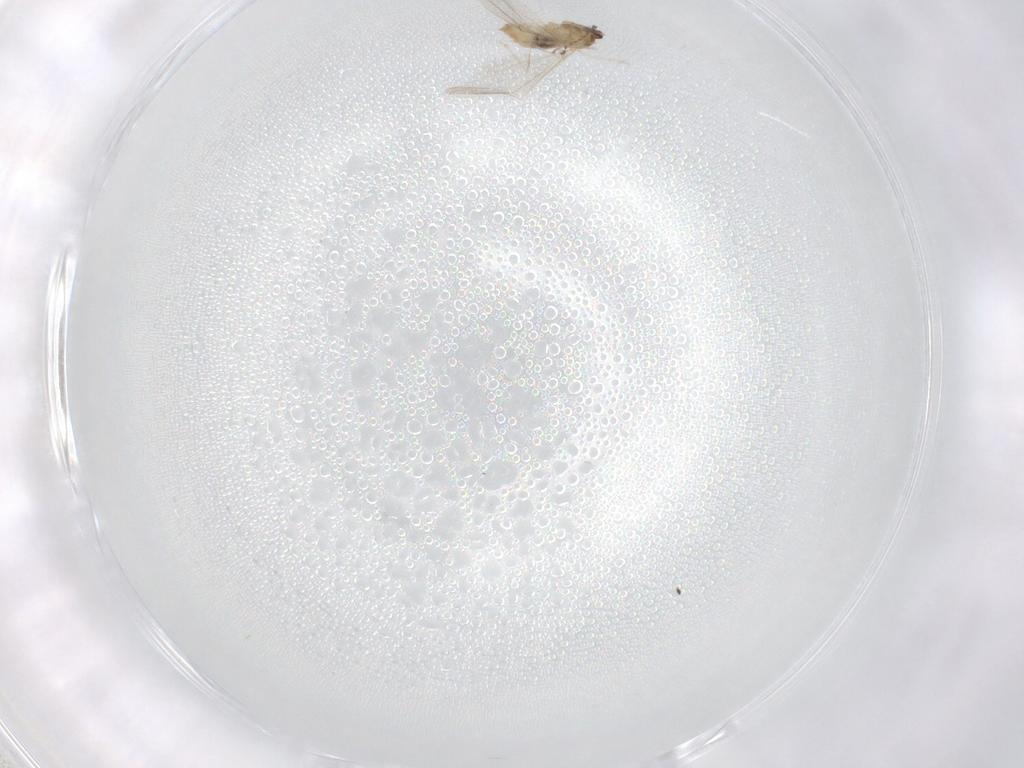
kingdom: Animalia
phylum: Arthropoda
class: Insecta
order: Diptera
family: Cecidomyiidae
